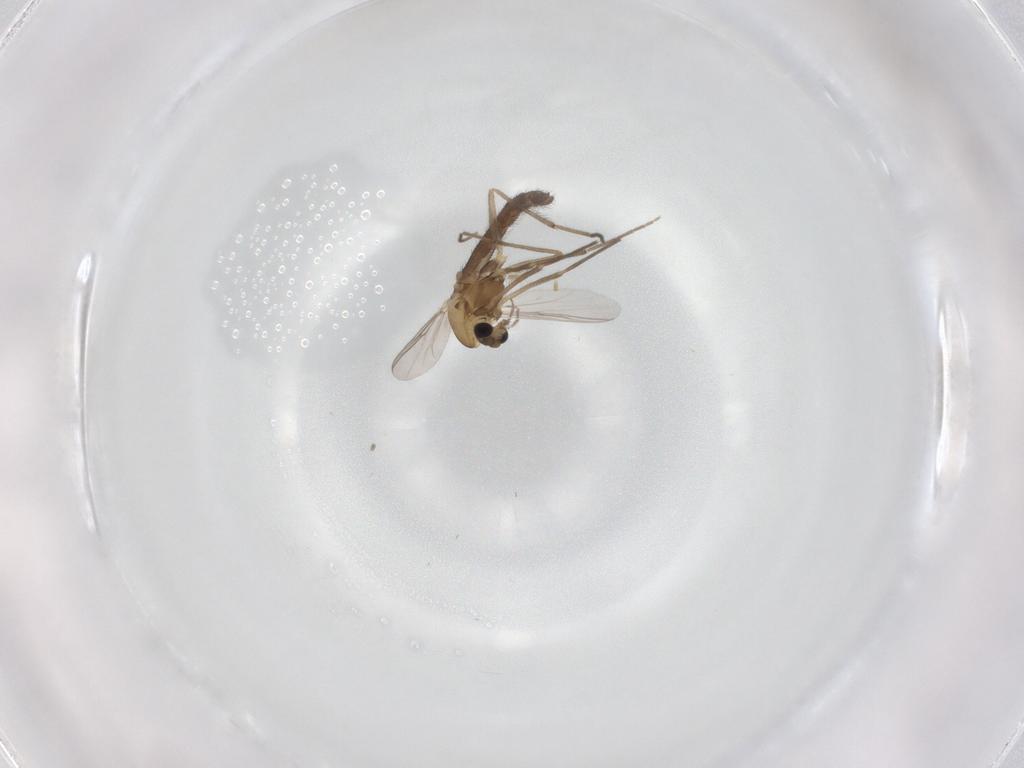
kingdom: Animalia
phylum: Arthropoda
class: Insecta
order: Diptera
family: Chironomidae
